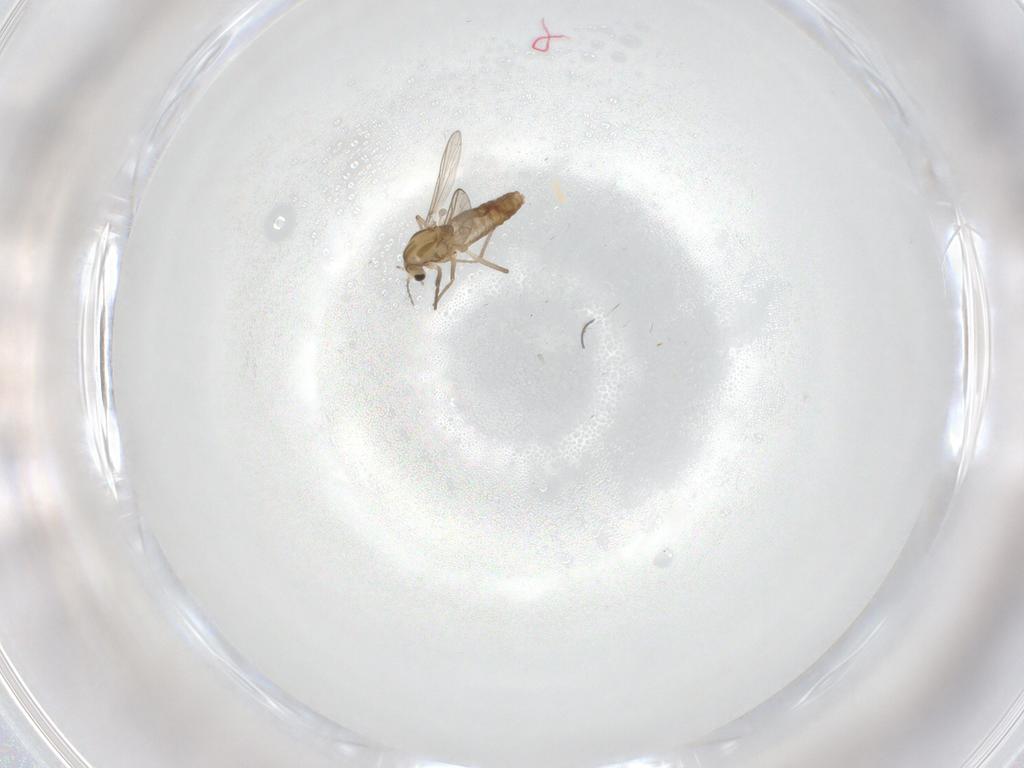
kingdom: Animalia
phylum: Arthropoda
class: Insecta
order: Diptera
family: Chironomidae
